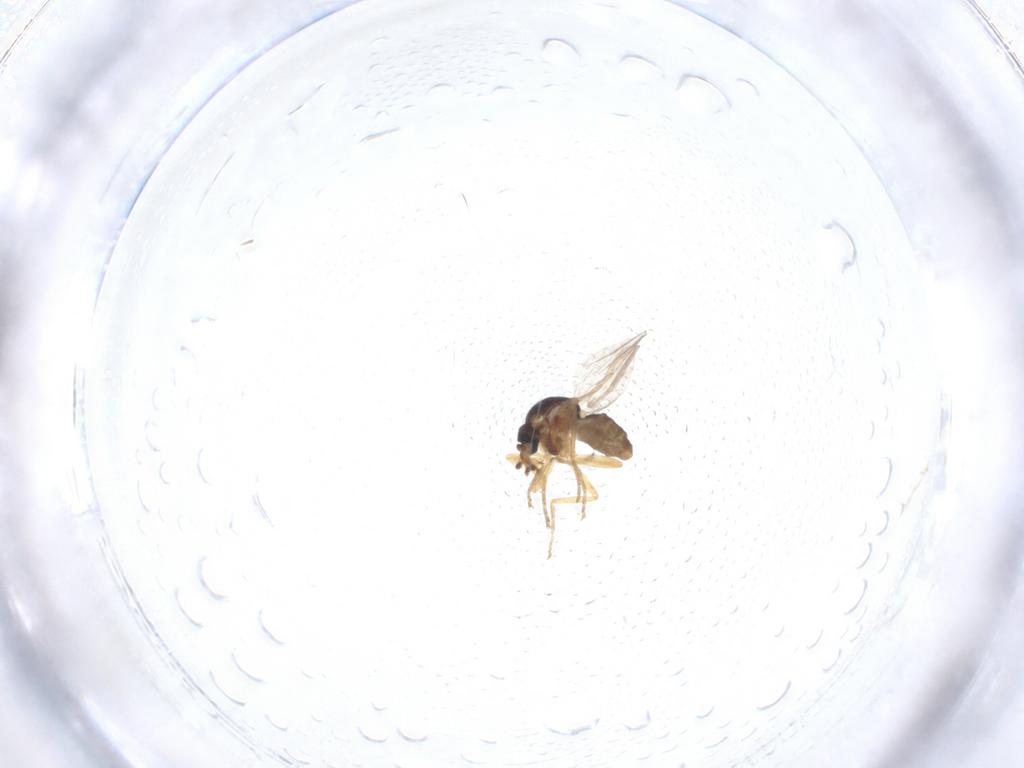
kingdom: Animalia
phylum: Arthropoda
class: Insecta
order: Diptera
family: Ceratopogonidae
